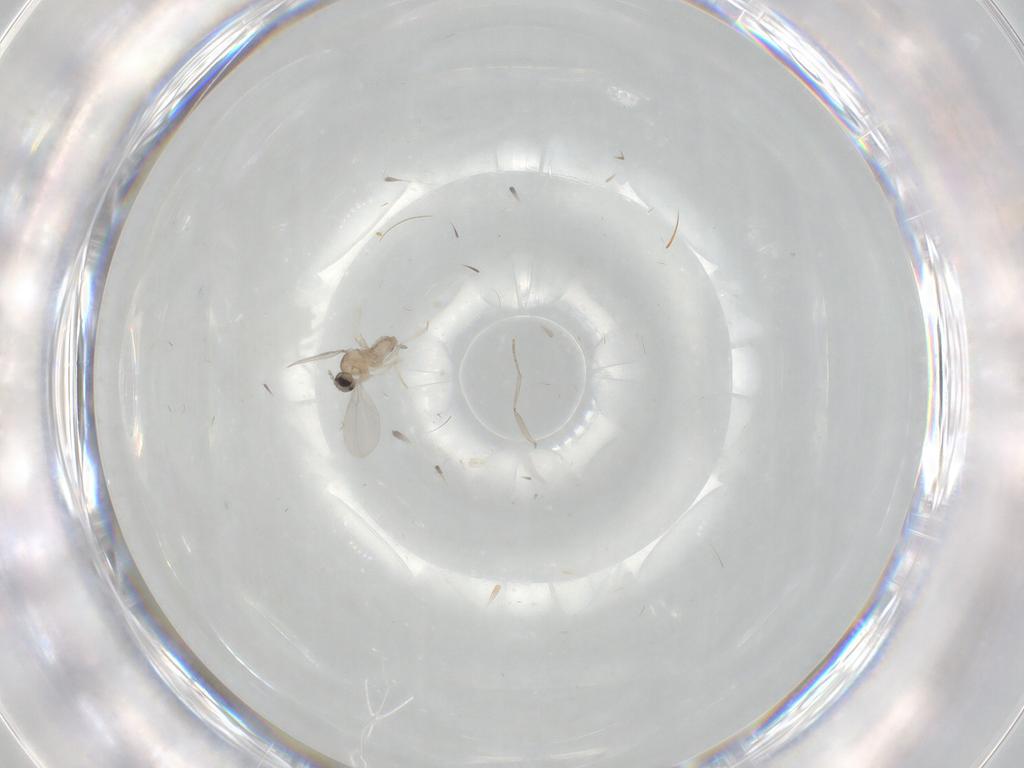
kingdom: Animalia
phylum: Arthropoda
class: Insecta
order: Diptera
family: Cecidomyiidae
